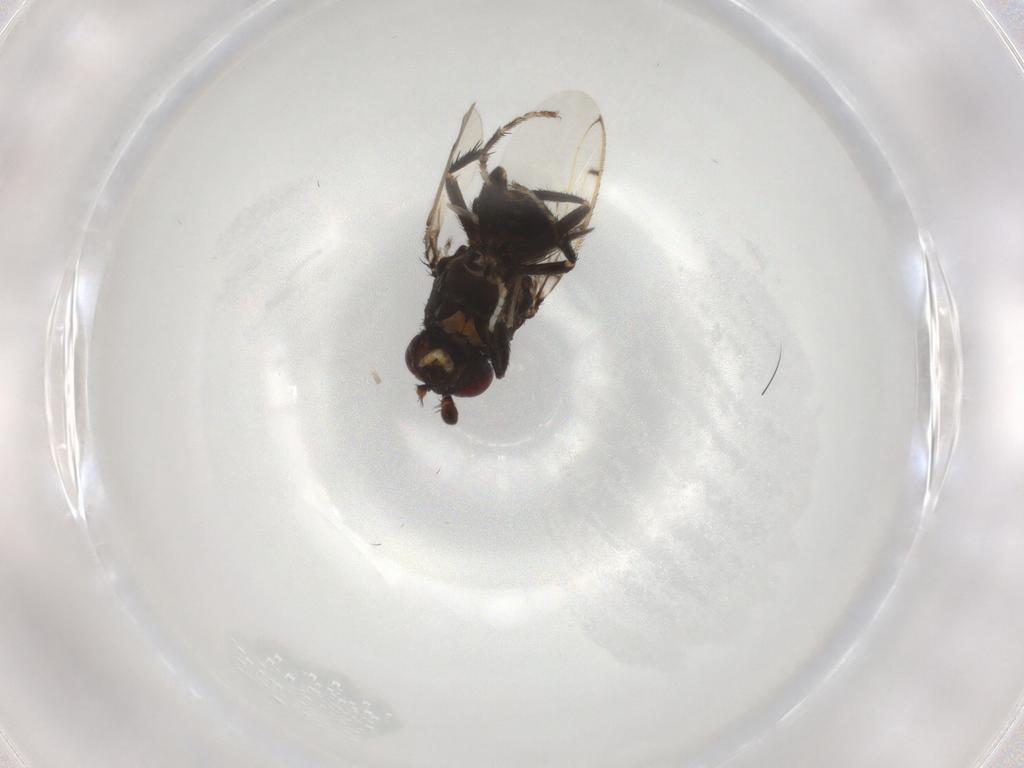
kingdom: Animalia
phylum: Arthropoda
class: Insecta
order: Diptera
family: Sphaeroceridae
